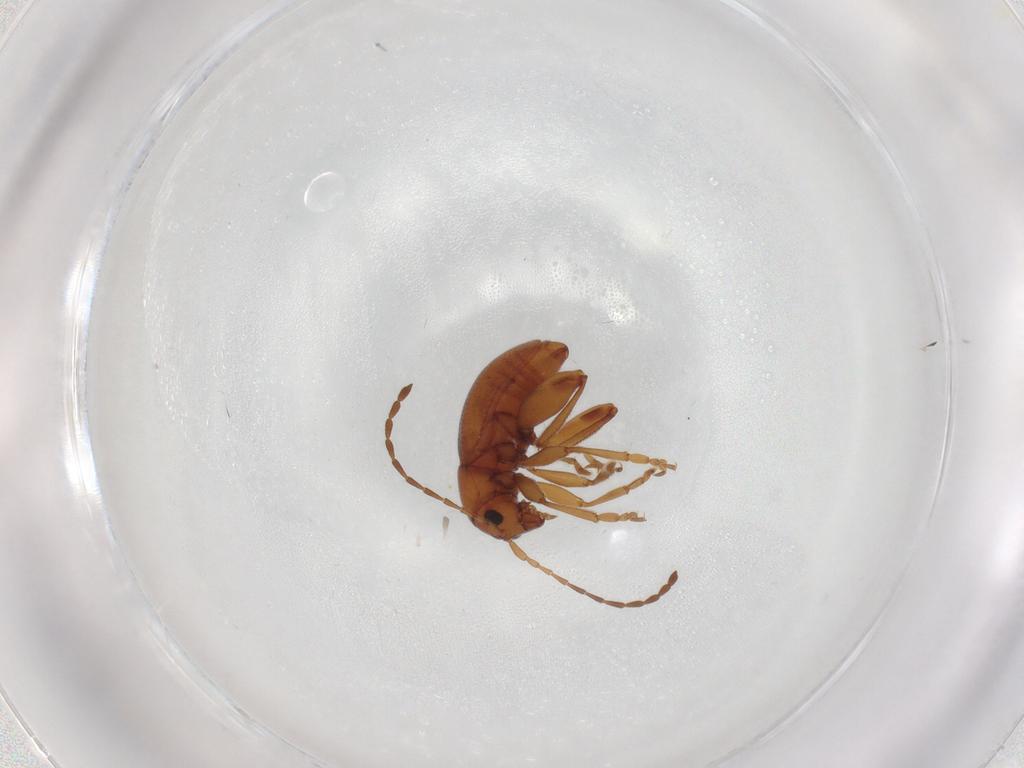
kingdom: Animalia
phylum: Arthropoda
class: Insecta
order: Coleoptera
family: Chrysomelidae
